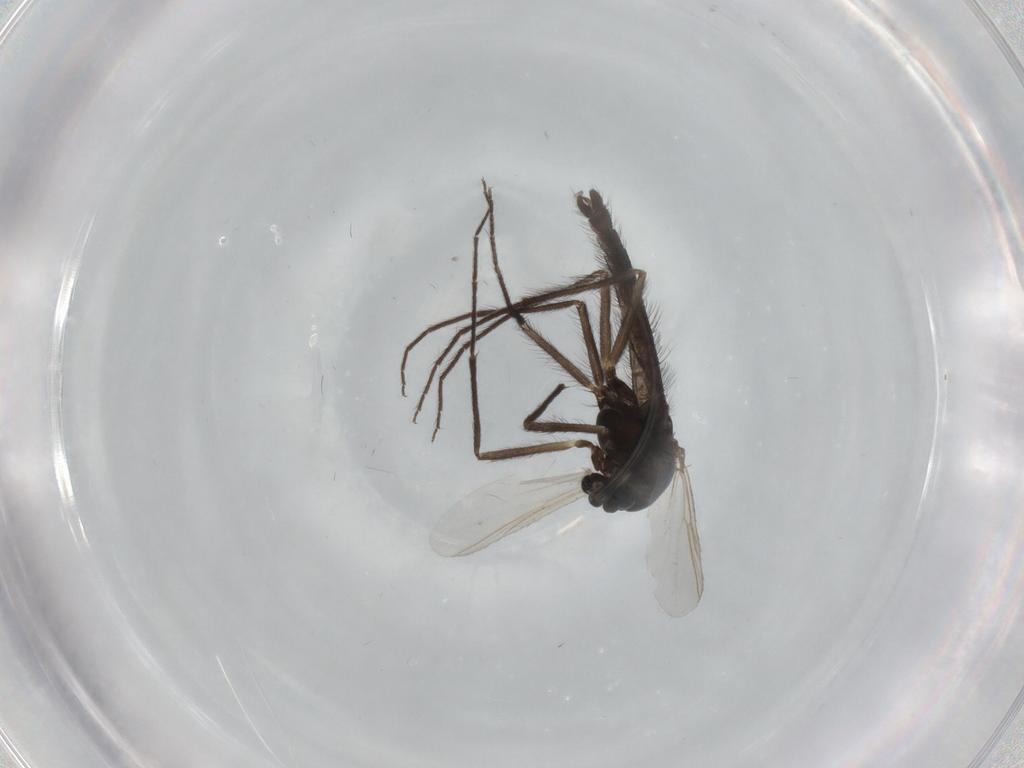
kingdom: Animalia
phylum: Arthropoda
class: Insecta
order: Diptera
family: Chironomidae
